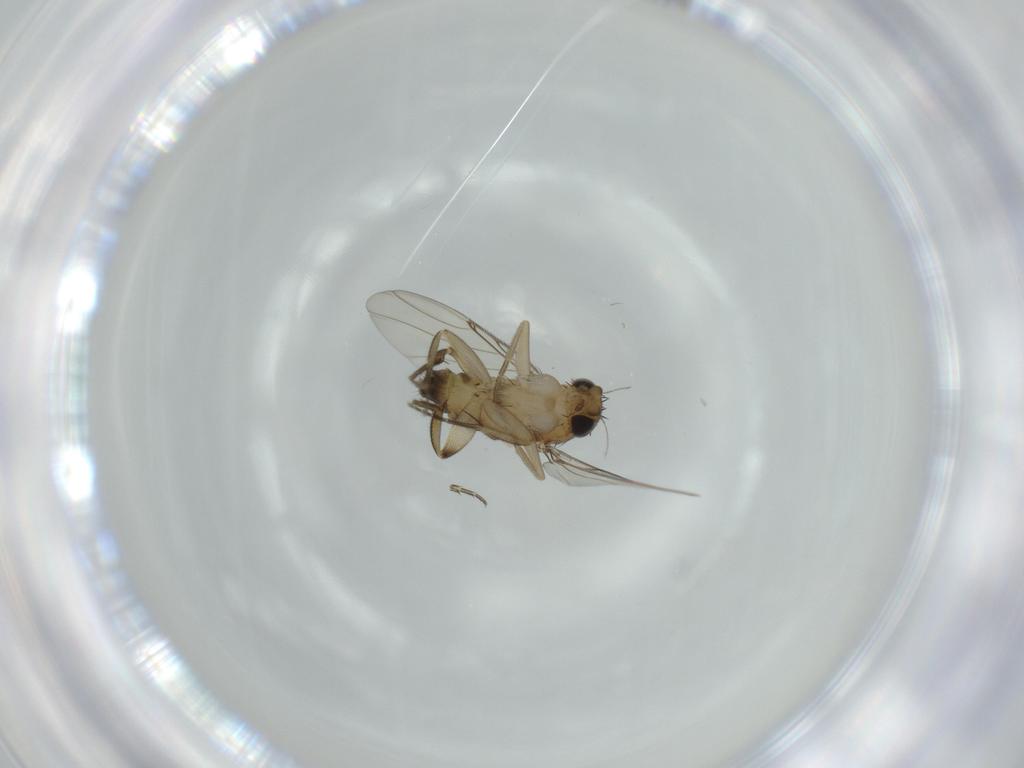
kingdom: Animalia
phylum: Arthropoda
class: Insecta
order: Diptera
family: Phoridae
